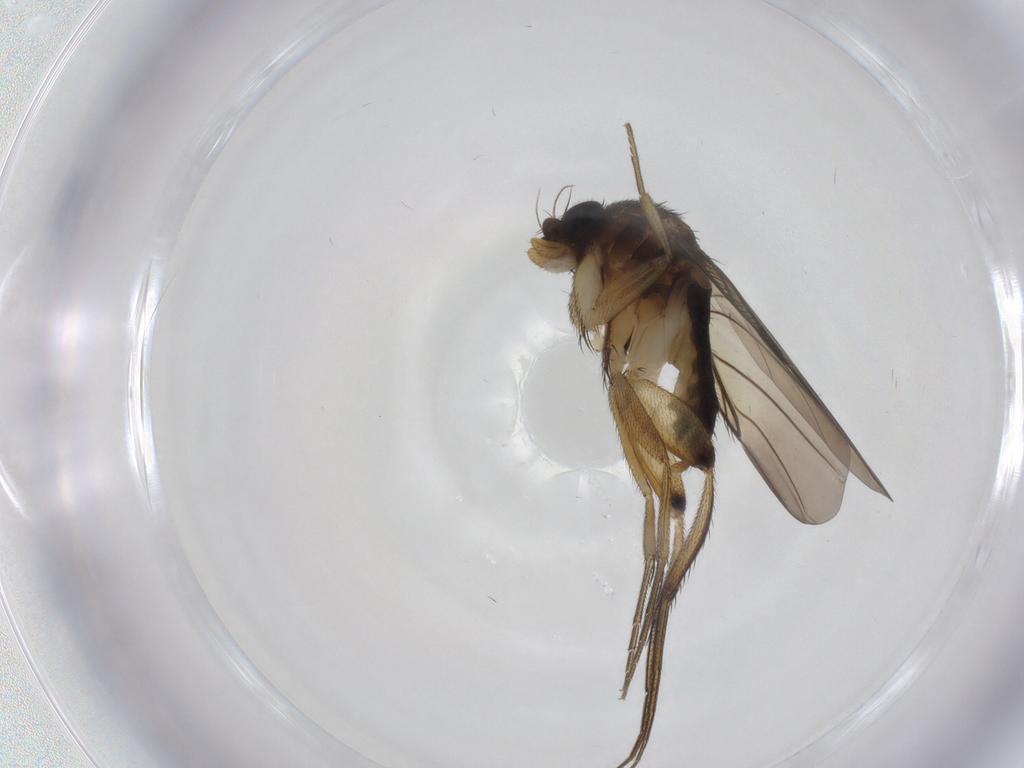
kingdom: Animalia
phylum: Arthropoda
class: Insecta
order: Diptera
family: Phoridae
